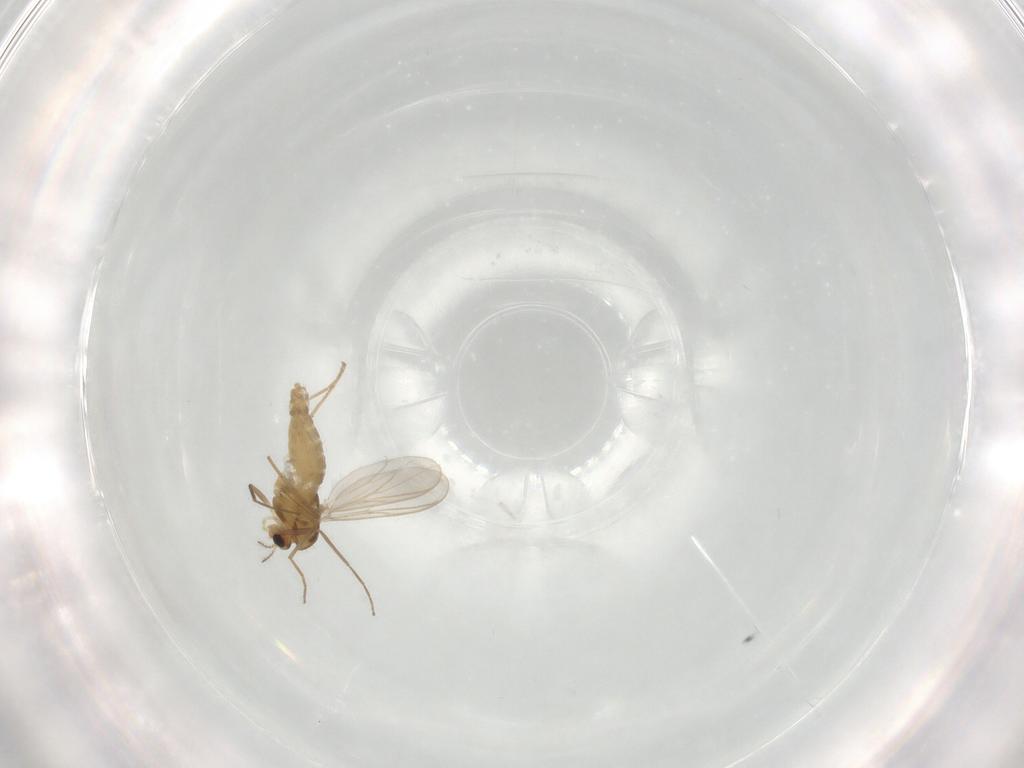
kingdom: Animalia
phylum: Arthropoda
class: Insecta
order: Diptera
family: Chironomidae
